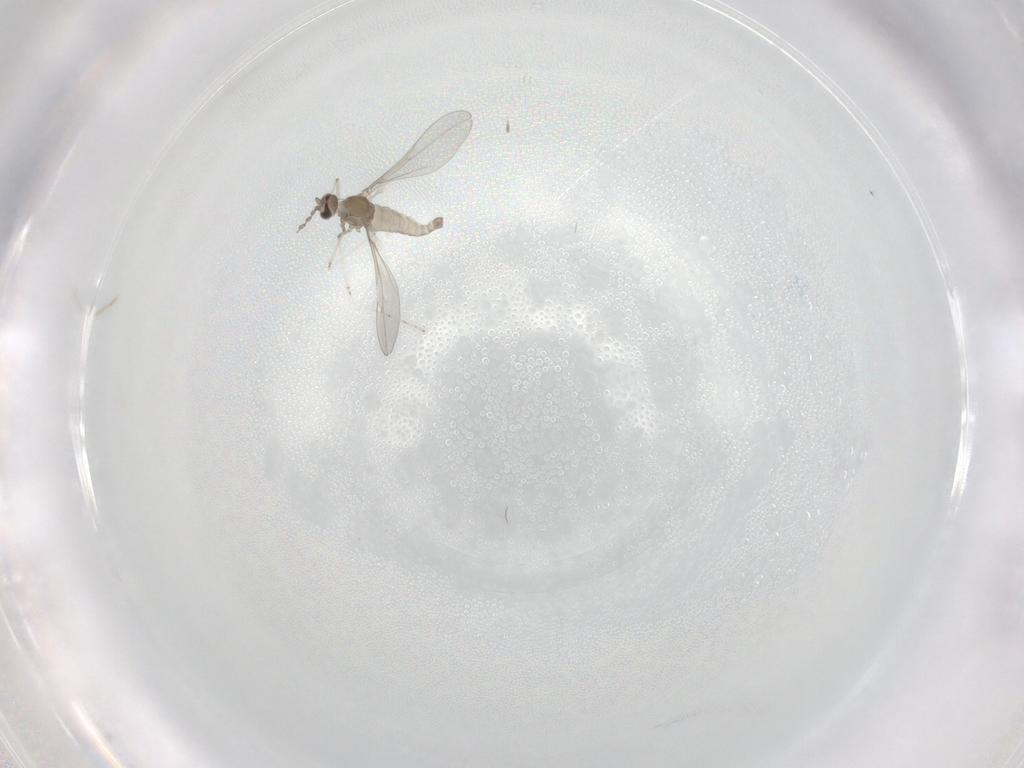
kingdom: Animalia
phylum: Arthropoda
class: Insecta
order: Diptera
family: Cecidomyiidae
